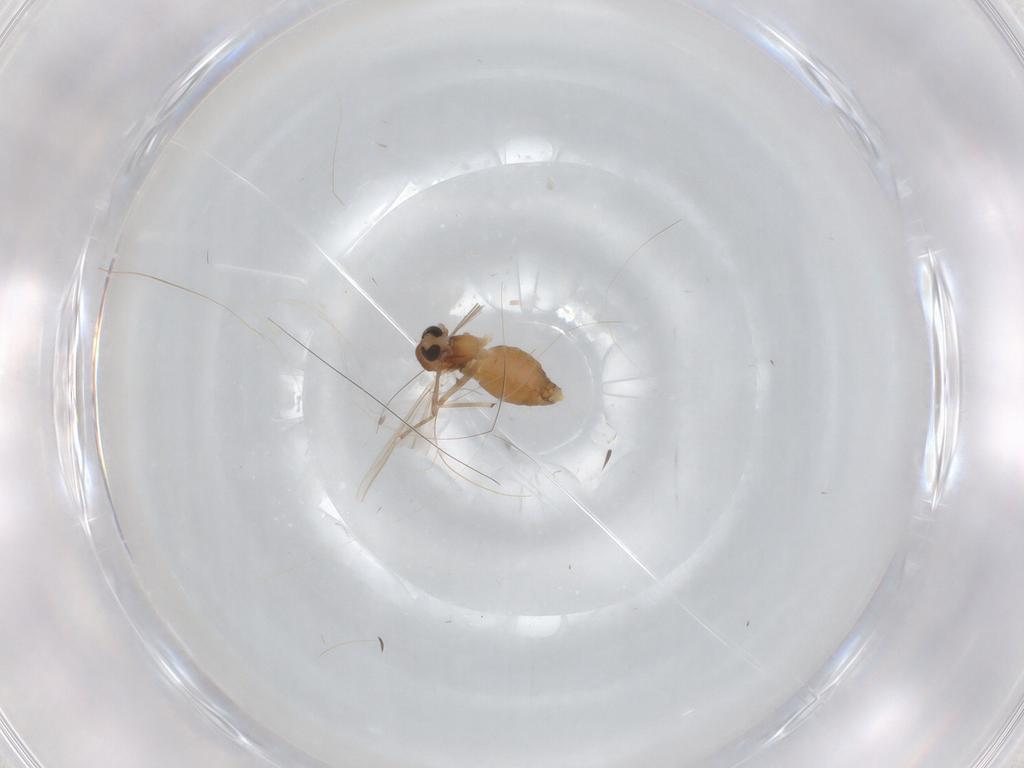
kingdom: Animalia
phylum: Arthropoda
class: Insecta
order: Diptera
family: Chironomidae
